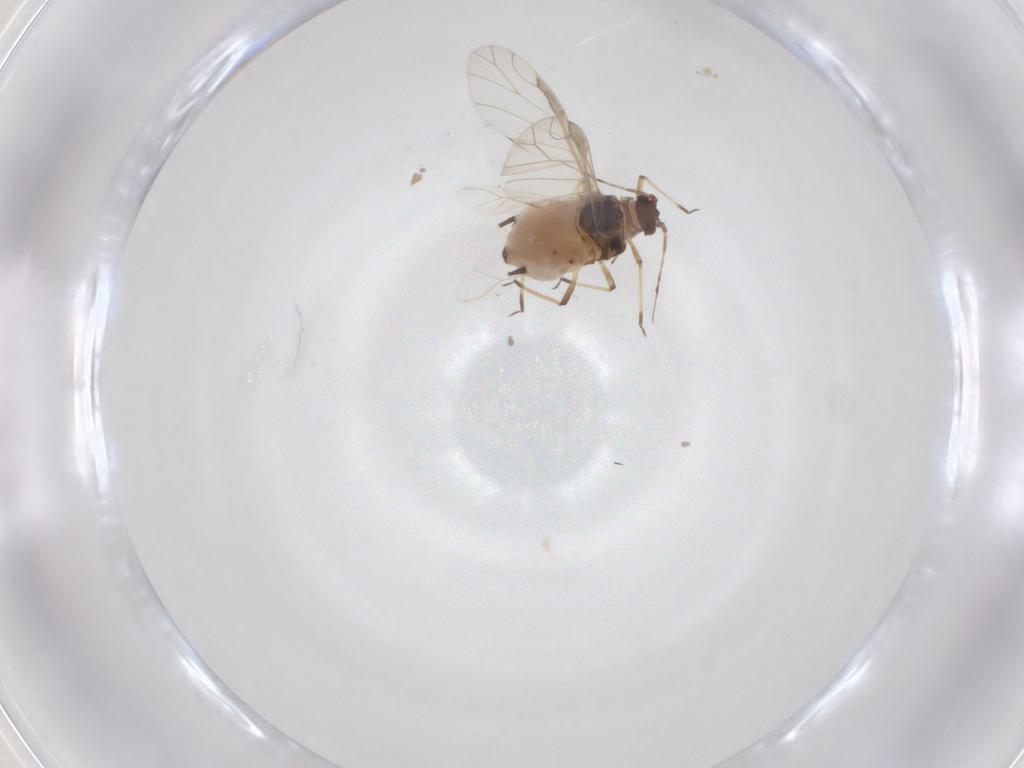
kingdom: Animalia
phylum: Arthropoda
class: Insecta
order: Hemiptera
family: Aphididae
